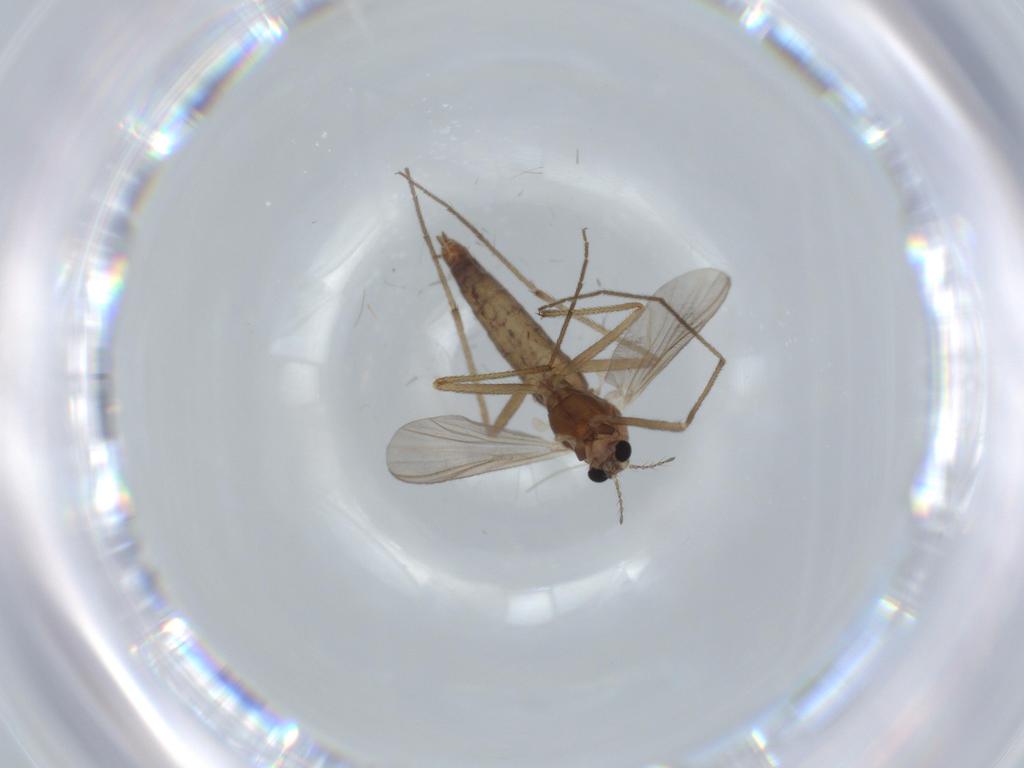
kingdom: Animalia
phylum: Arthropoda
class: Insecta
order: Diptera
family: Chironomidae
